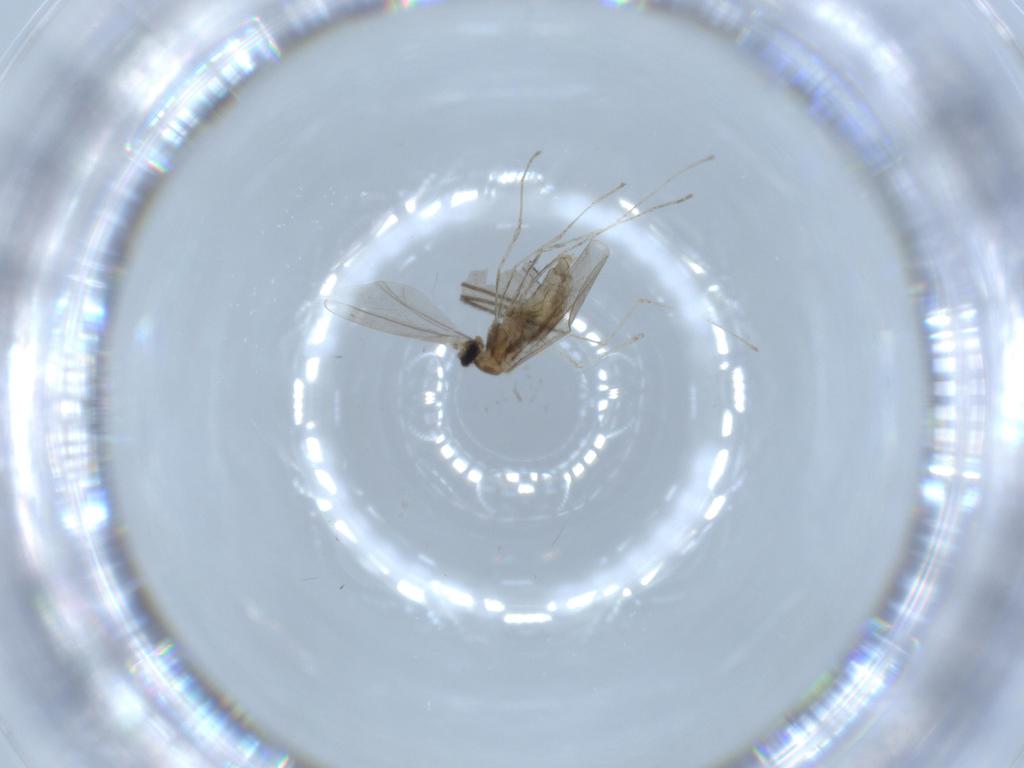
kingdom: Animalia
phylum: Arthropoda
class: Insecta
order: Diptera
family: Cecidomyiidae
